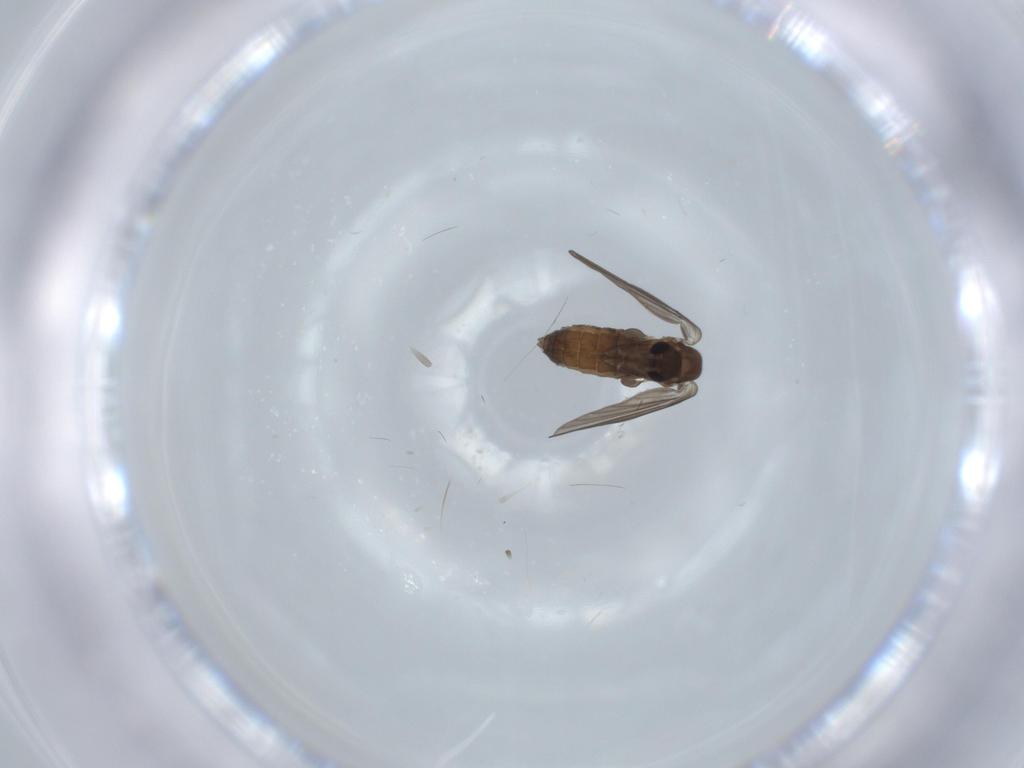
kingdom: Animalia
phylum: Arthropoda
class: Insecta
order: Diptera
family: Psychodidae
